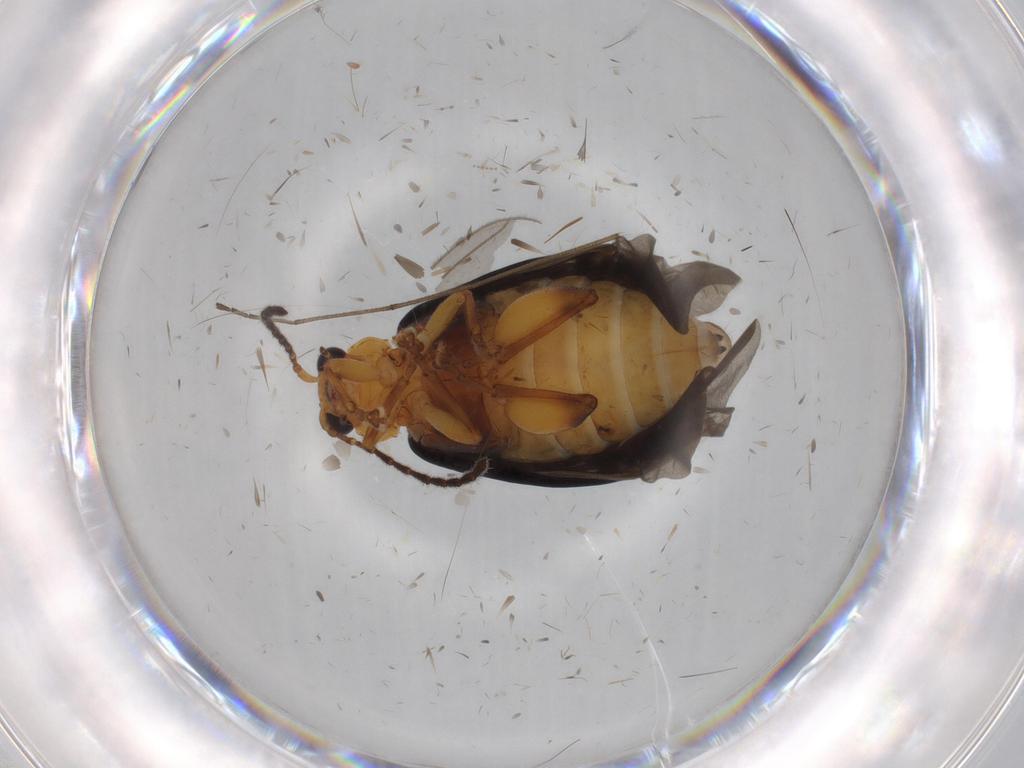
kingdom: Animalia
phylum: Arthropoda
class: Insecta
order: Coleoptera
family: Chrysomelidae
